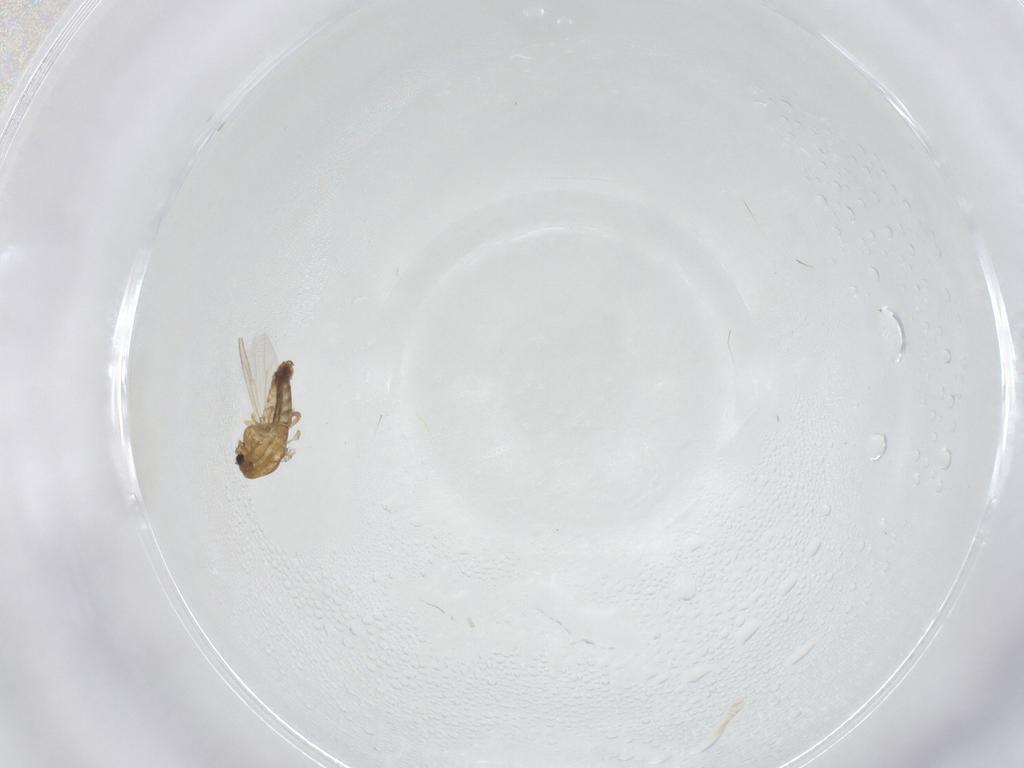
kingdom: Animalia
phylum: Arthropoda
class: Insecta
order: Diptera
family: Chironomidae
